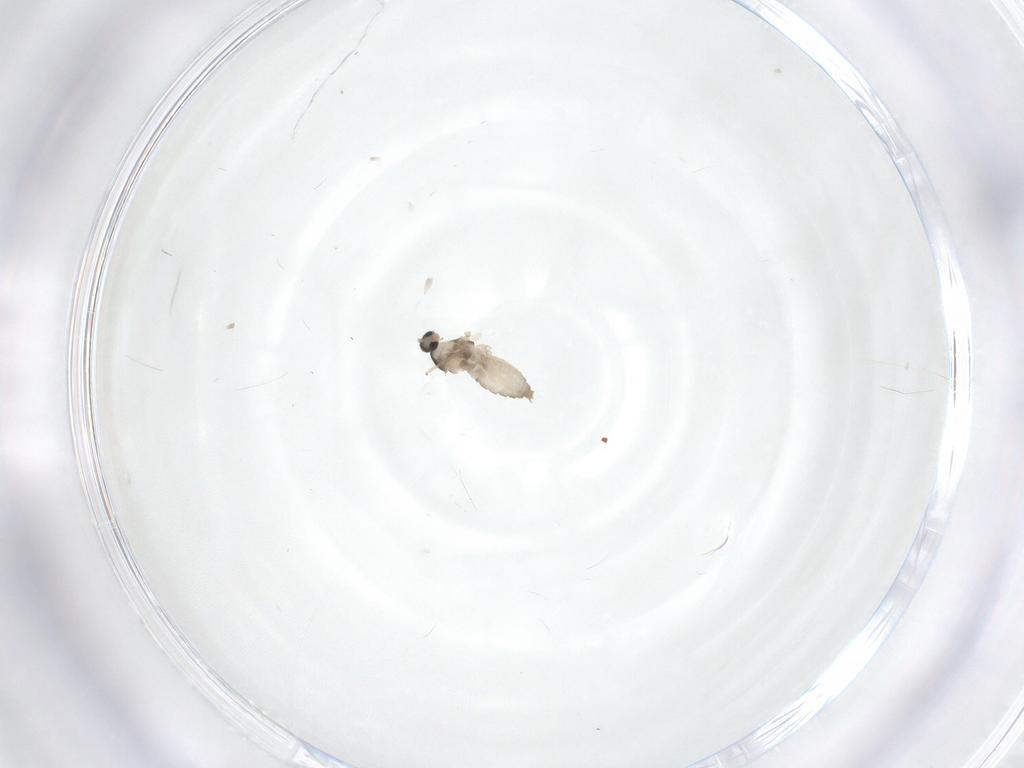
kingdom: Animalia
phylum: Arthropoda
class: Insecta
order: Diptera
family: Cecidomyiidae
